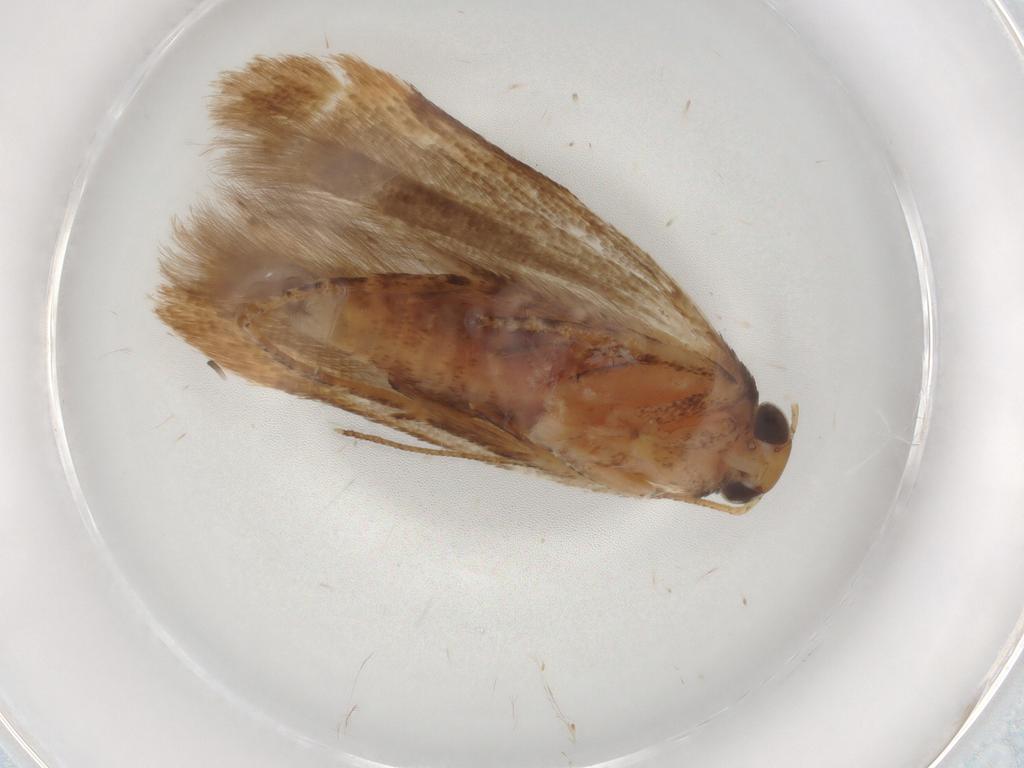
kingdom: Animalia
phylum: Arthropoda
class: Insecta
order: Lepidoptera
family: Gelechiidae
